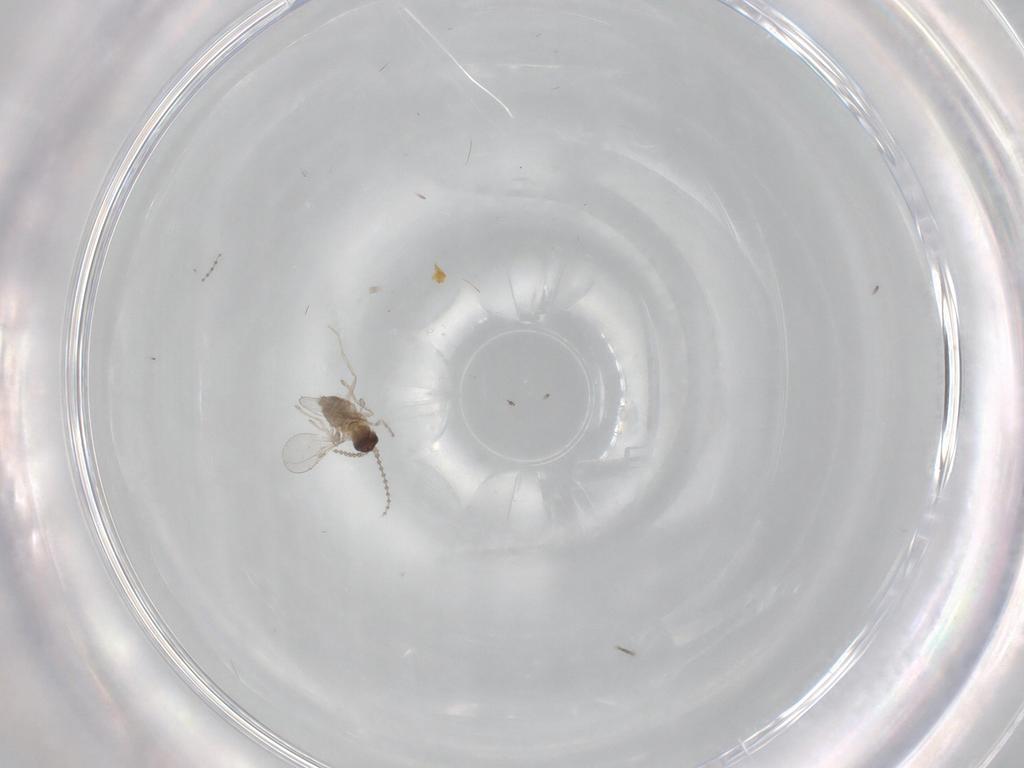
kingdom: Animalia
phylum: Arthropoda
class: Insecta
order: Diptera
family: Cecidomyiidae
